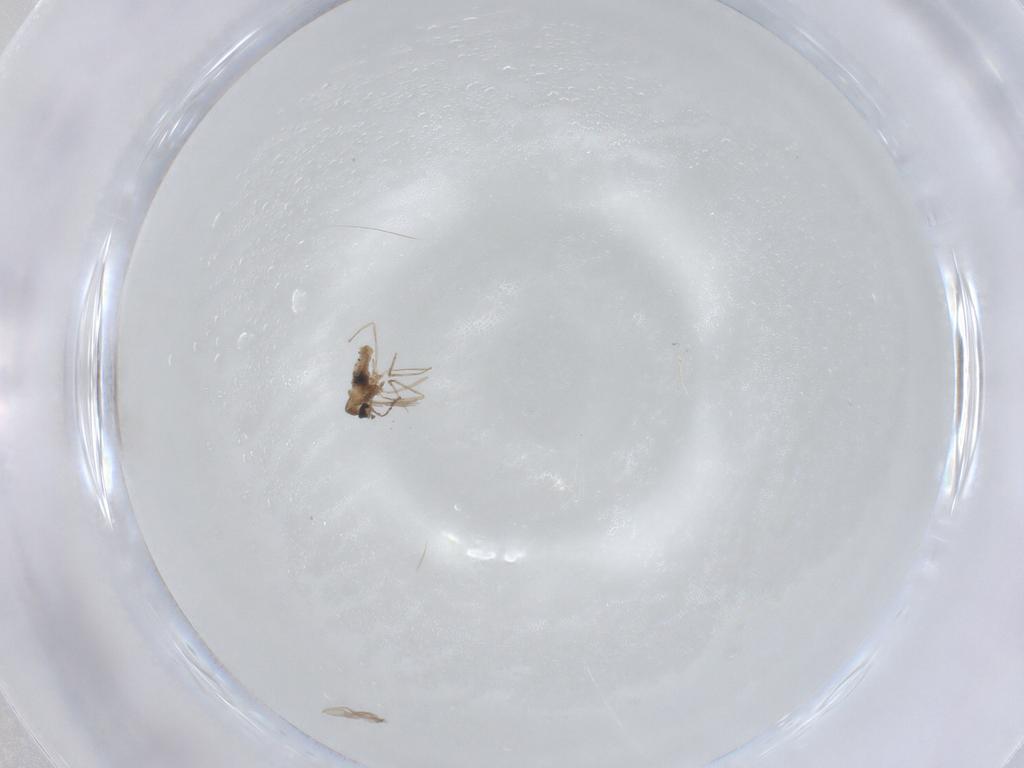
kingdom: Animalia
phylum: Arthropoda
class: Insecta
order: Diptera
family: Cecidomyiidae
